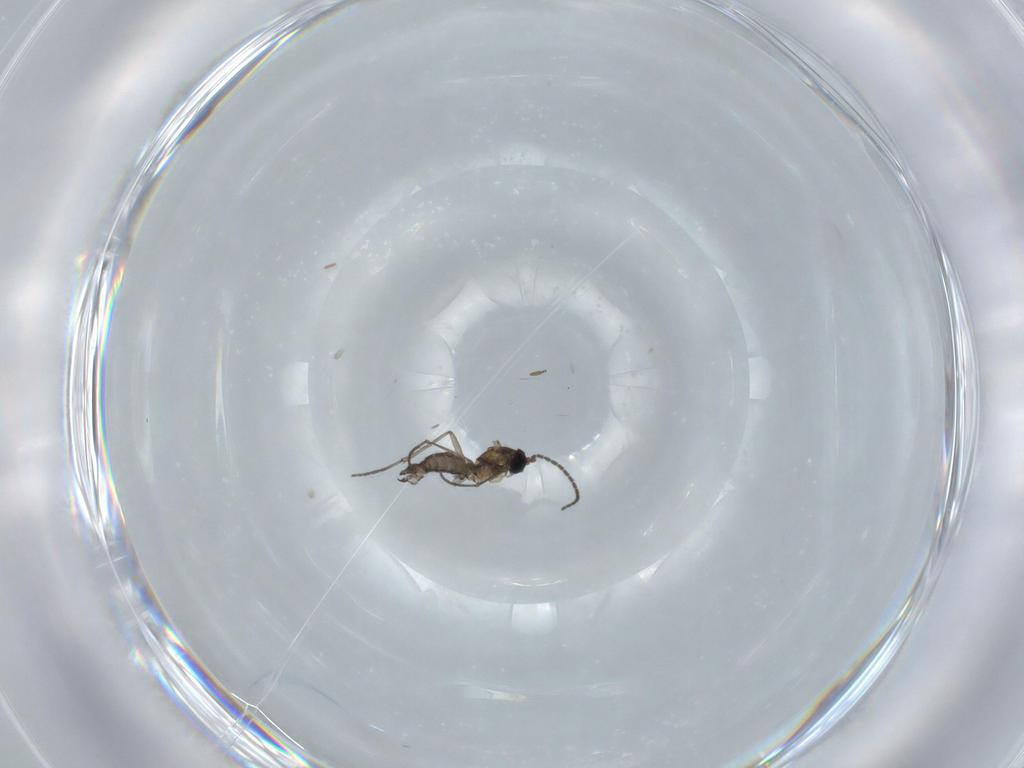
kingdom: Animalia
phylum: Arthropoda
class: Insecta
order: Diptera
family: Sciaridae
